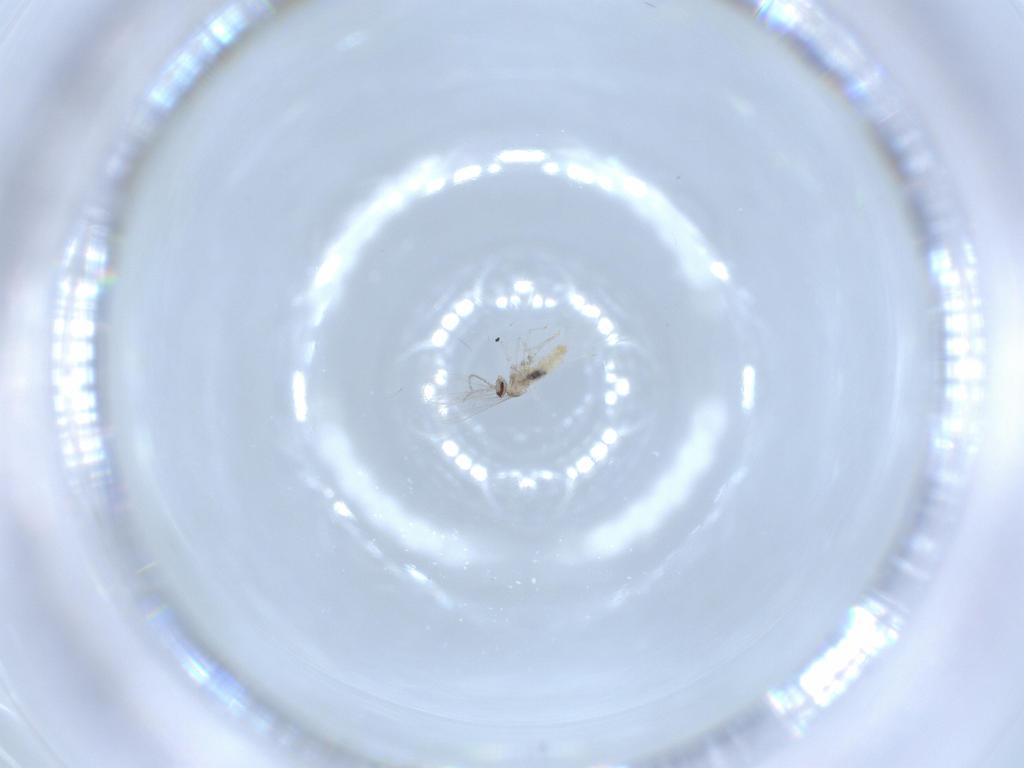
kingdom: Animalia
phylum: Arthropoda
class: Insecta
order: Diptera
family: Cecidomyiidae
